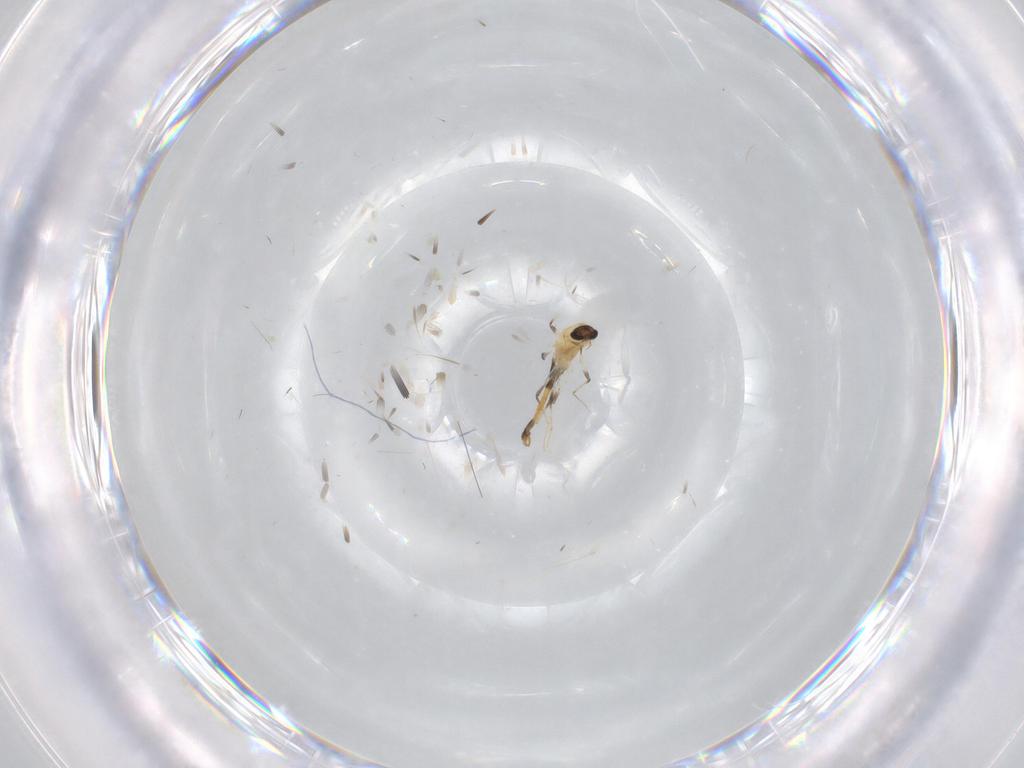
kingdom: Animalia
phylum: Arthropoda
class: Insecta
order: Diptera
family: Chironomidae
